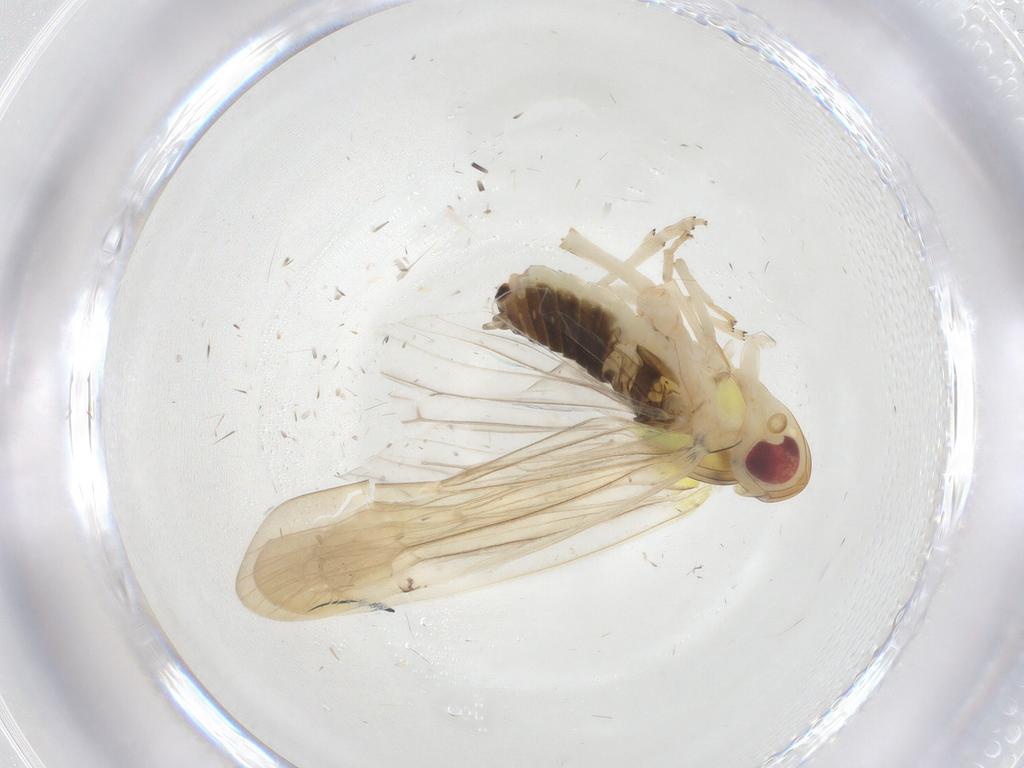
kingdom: Animalia
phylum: Arthropoda
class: Insecta
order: Hemiptera
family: Achilidae
